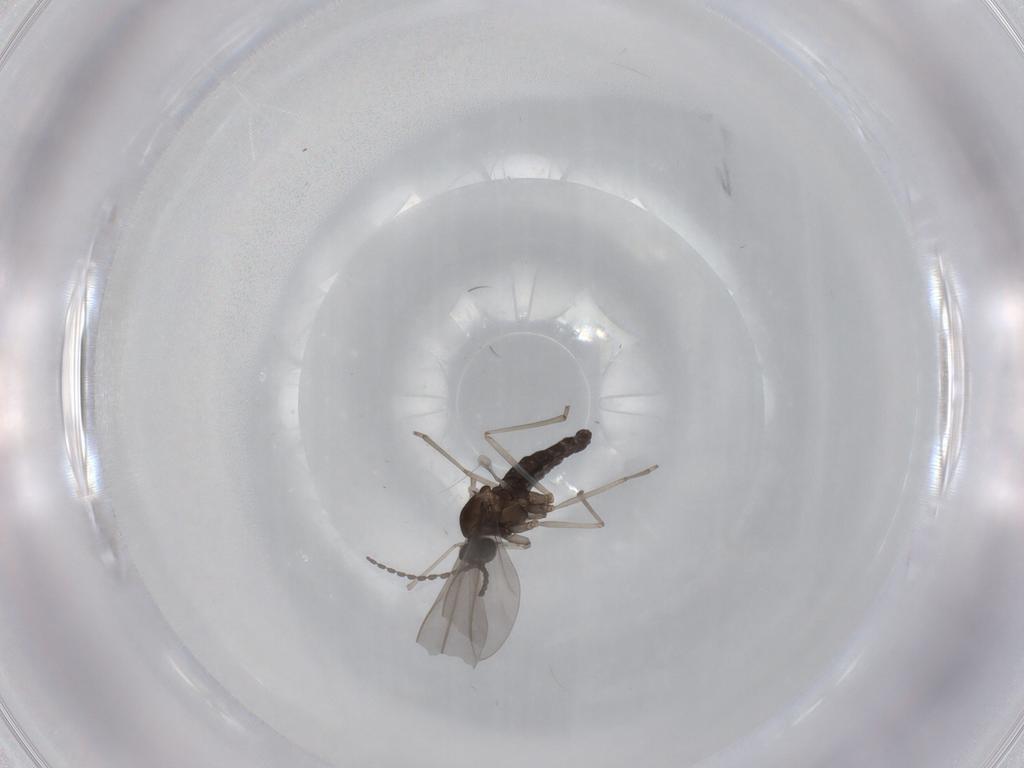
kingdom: Animalia
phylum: Arthropoda
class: Insecta
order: Diptera
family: Cecidomyiidae
